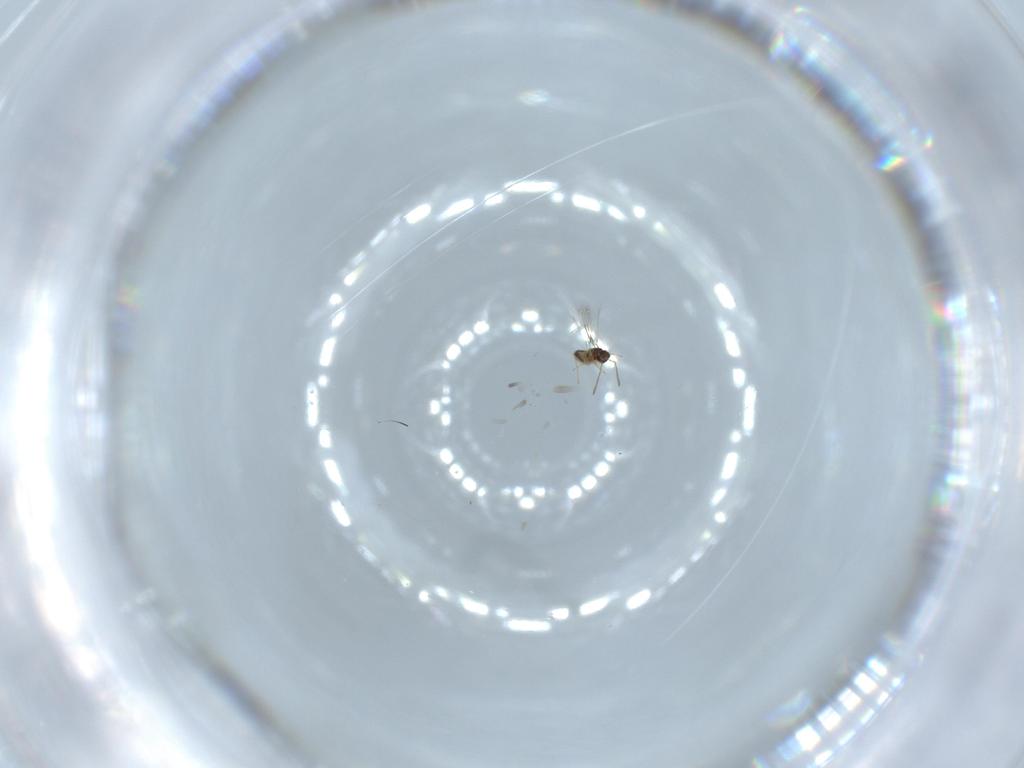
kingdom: Animalia
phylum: Arthropoda
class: Insecta
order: Hymenoptera
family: Mymaridae
